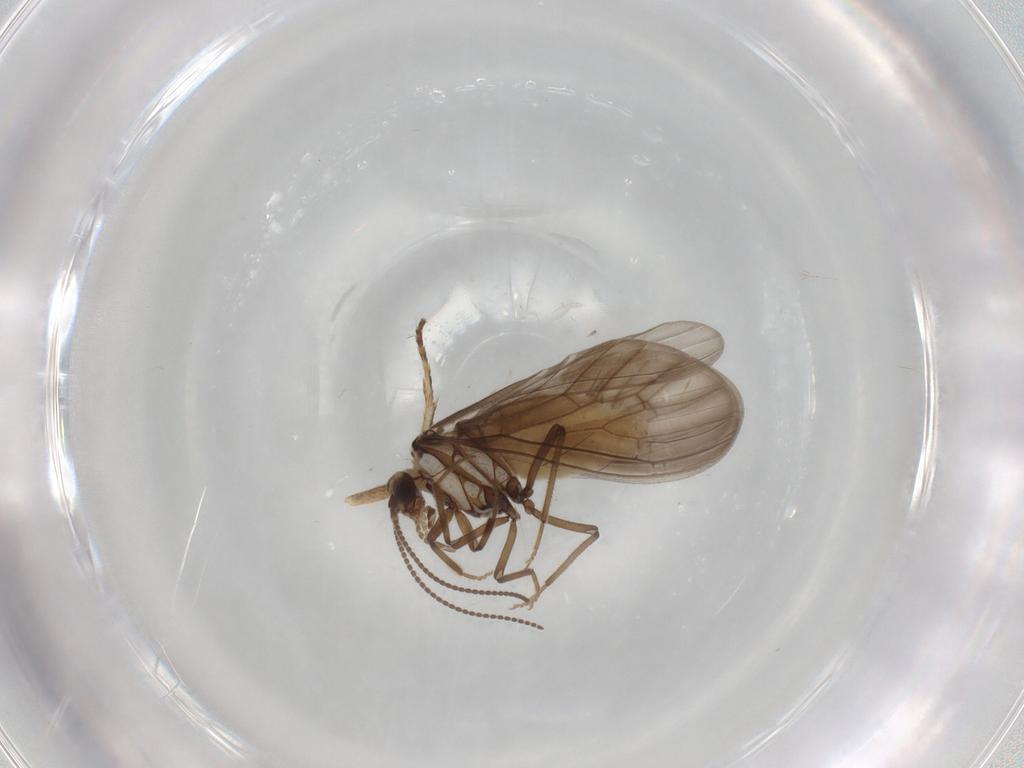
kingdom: Animalia
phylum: Arthropoda
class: Insecta
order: Neuroptera
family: Coniopterygidae
